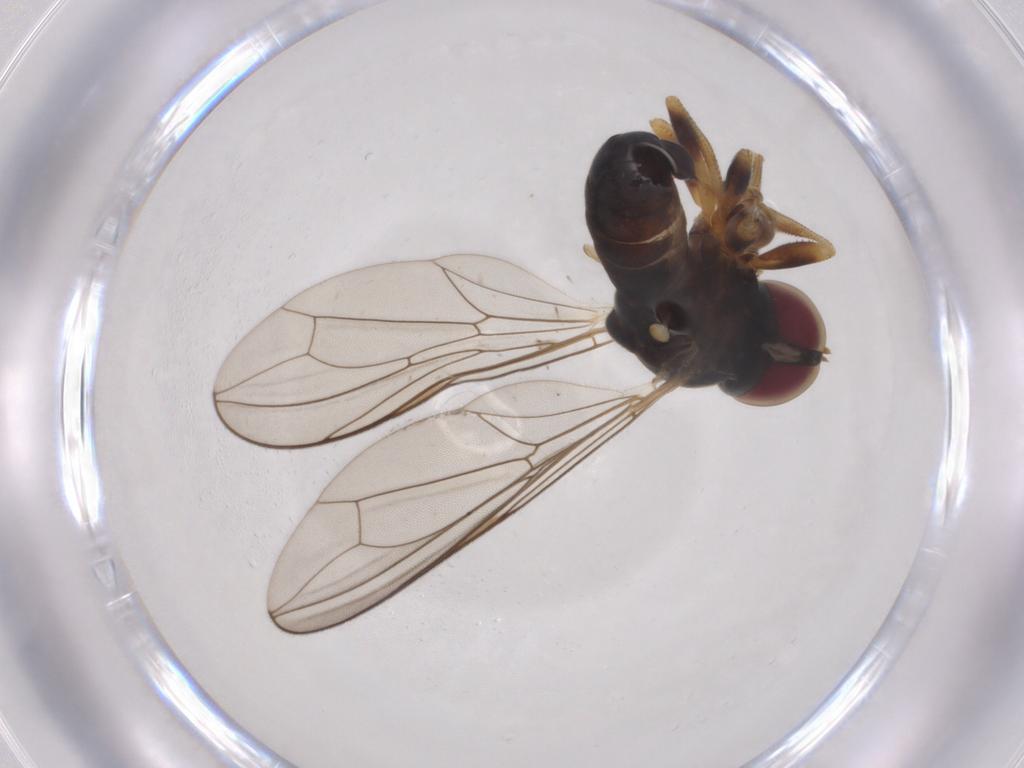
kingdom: Animalia
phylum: Arthropoda
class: Insecta
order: Diptera
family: Pipunculidae
